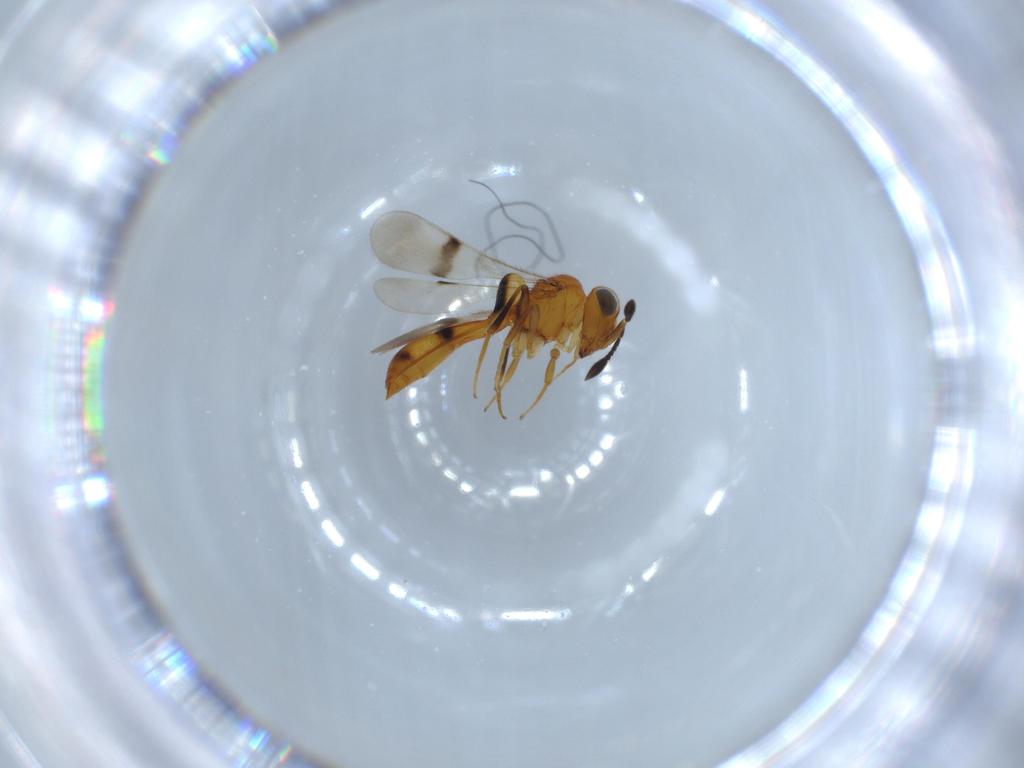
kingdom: Animalia
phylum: Arthropoda
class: Insecta
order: Hymenoptera
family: Scelionidae
